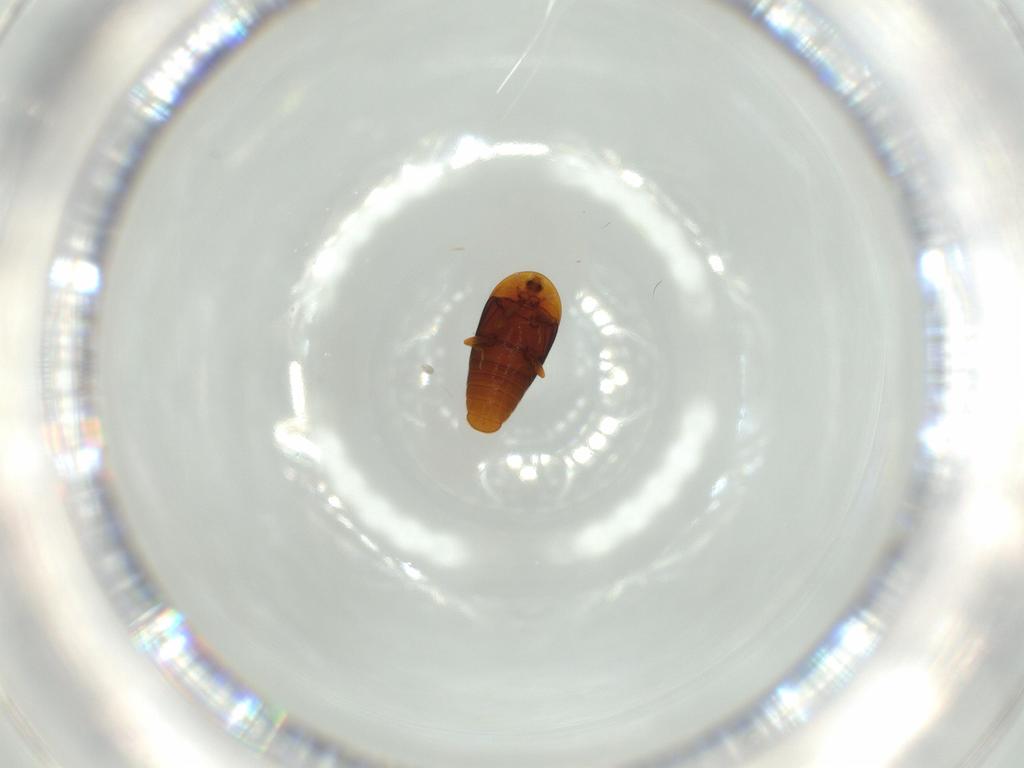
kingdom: Animalia
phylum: Arthropoda
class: Insecta
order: Coleoptera
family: Corylophidae
